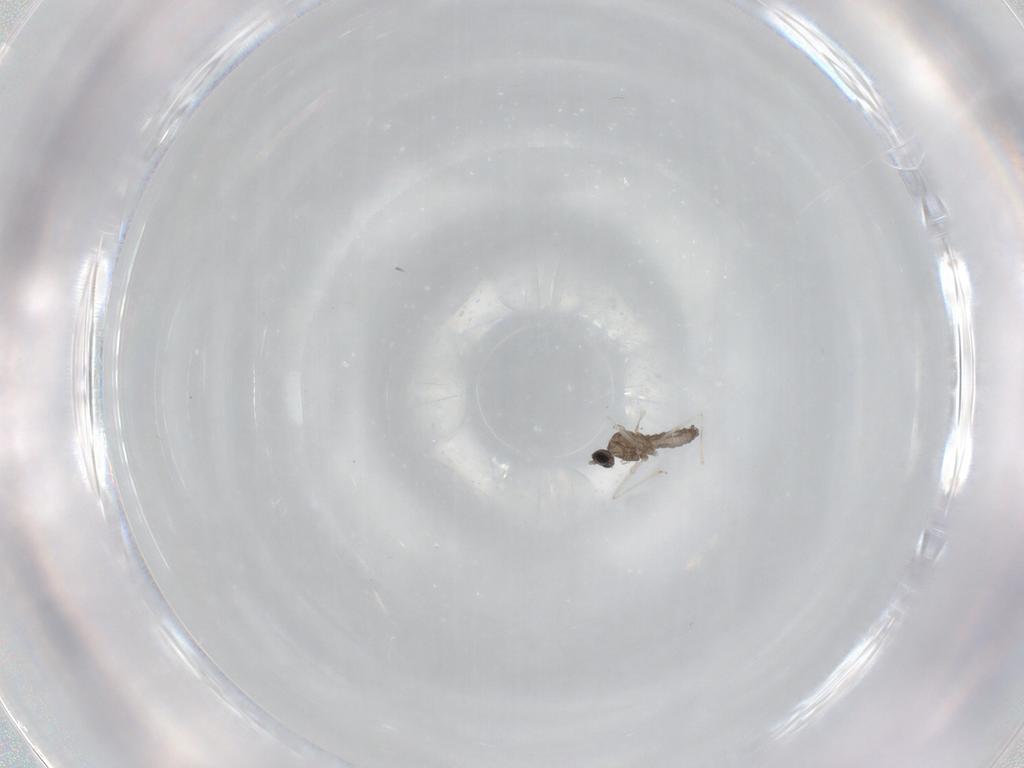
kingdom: Animalia
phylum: Arthropoda
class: Insecta
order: Diptera
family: Cecidomyiidae
